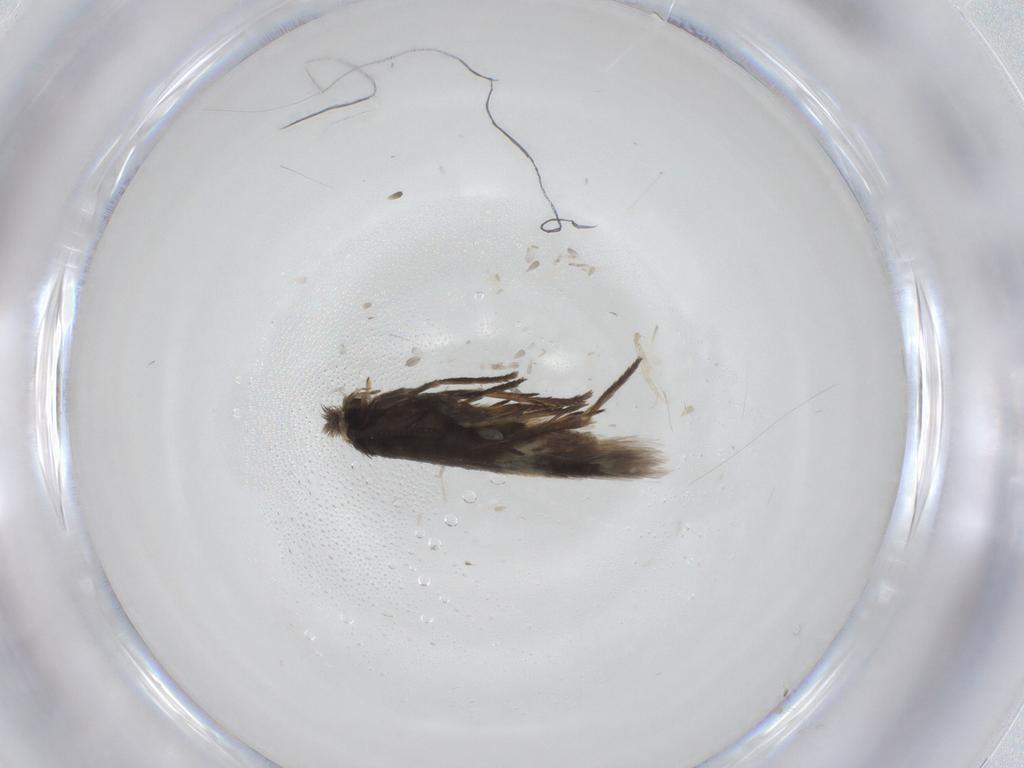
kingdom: Animalia
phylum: Arthropoda
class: Insecta
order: Lepidoptera
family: Nepticulidae
